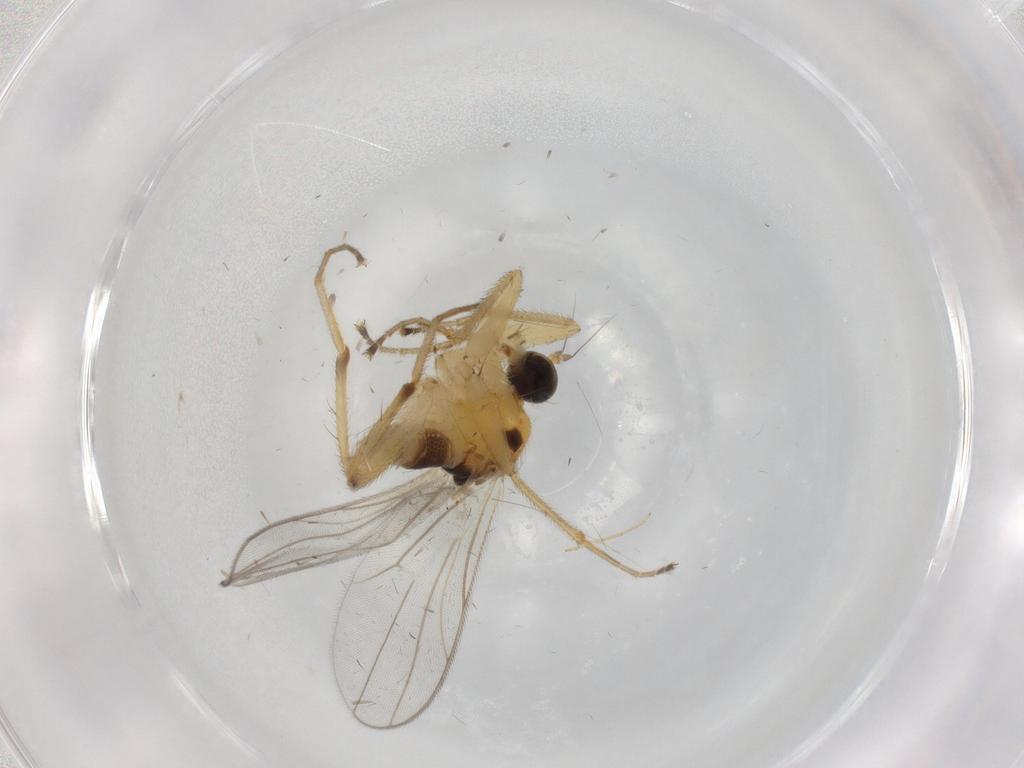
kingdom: Animalia
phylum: Arthropoda
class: Insecta
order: Diptera
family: Hybotidae
